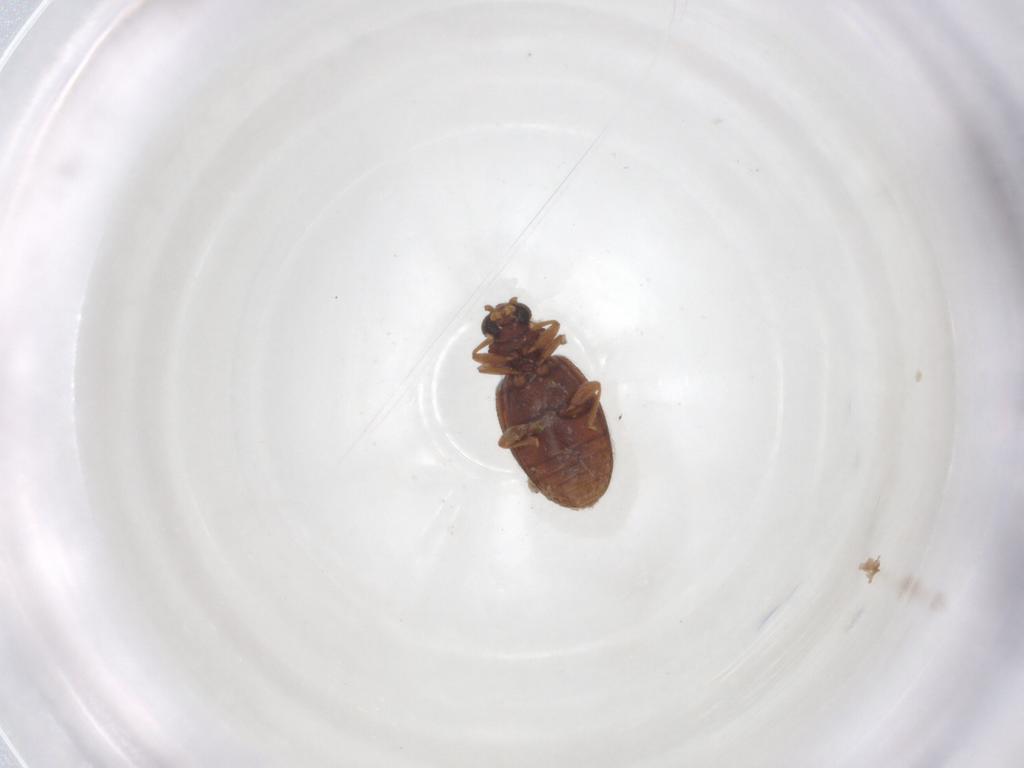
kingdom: Animalia
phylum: Arthropoda
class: Insecta
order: Coleoptera
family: Latridiidae
